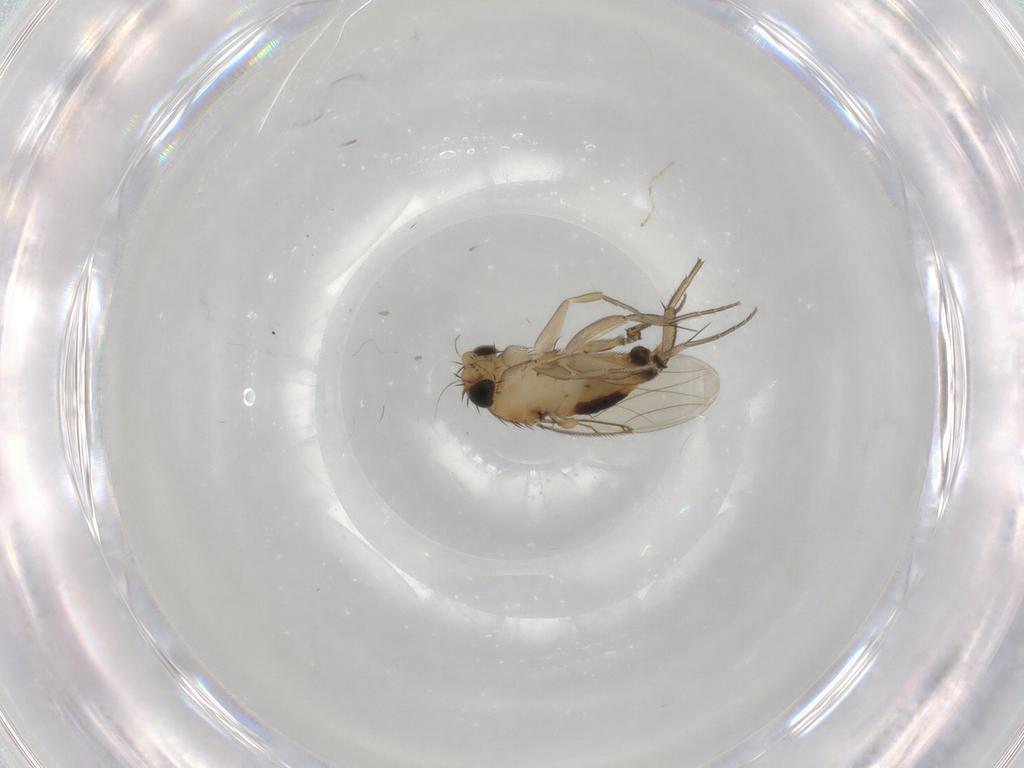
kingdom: Animalia
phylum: Arthropoda
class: Insecta
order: Diptera
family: Phoridae
